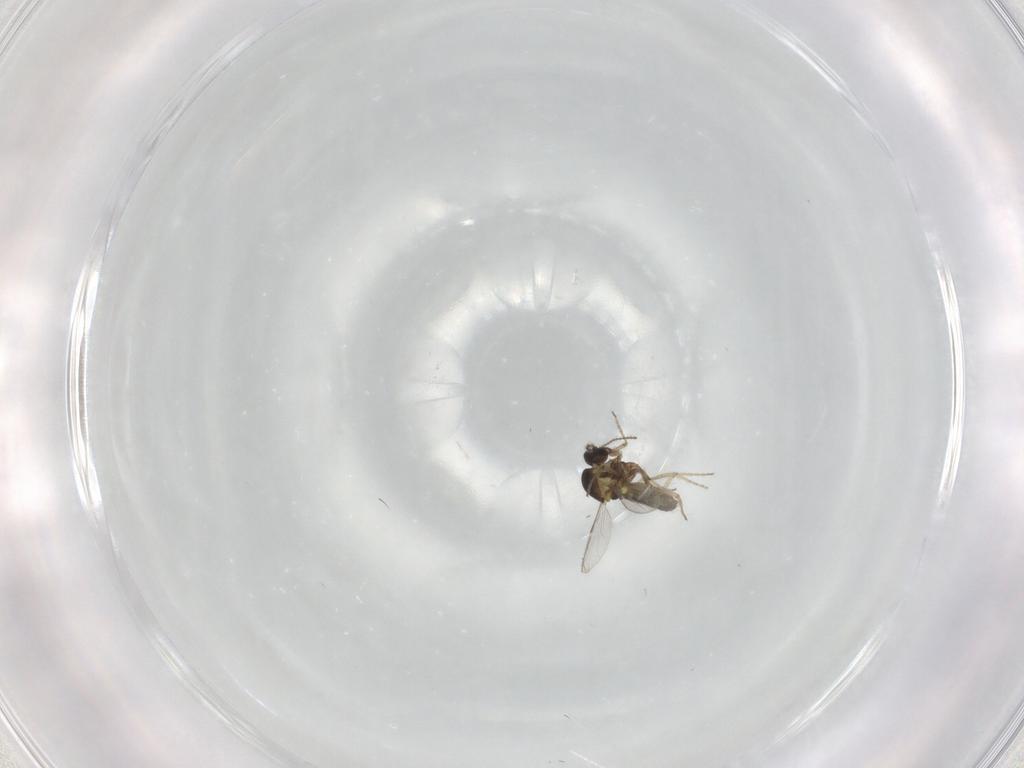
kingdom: Animalia
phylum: Arthropoda
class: Insecta
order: Diptera
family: Ceratopogonidae
